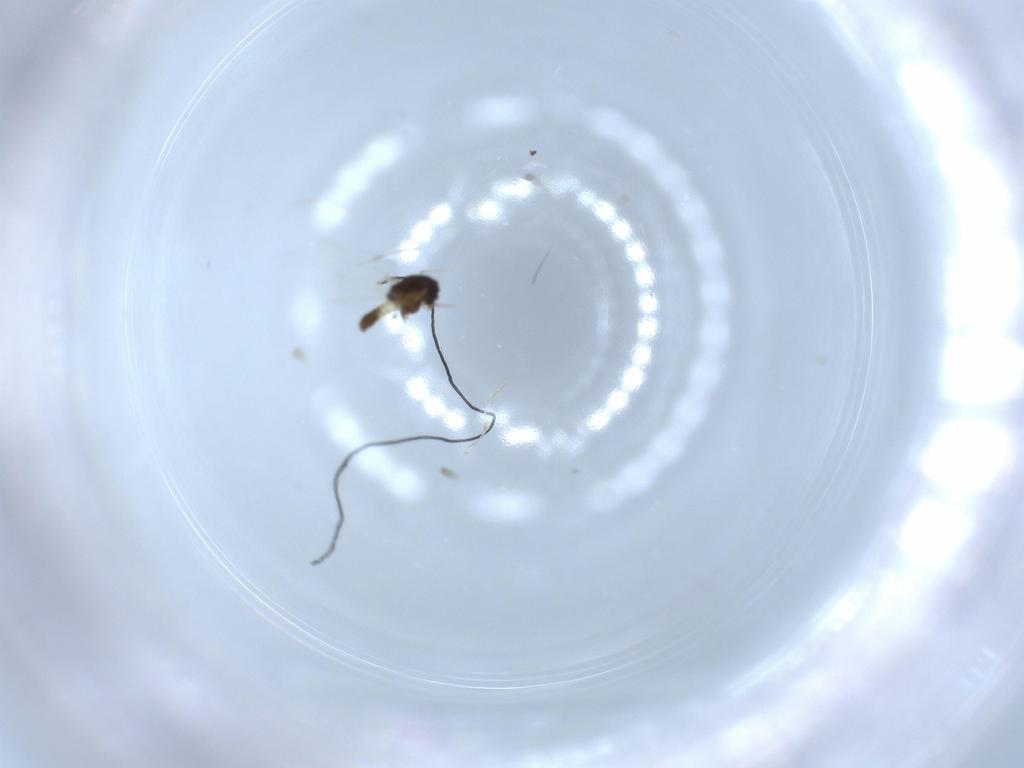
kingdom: Animalia
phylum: Arthropoda
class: Insecta
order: Diptera
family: Chironomidae
